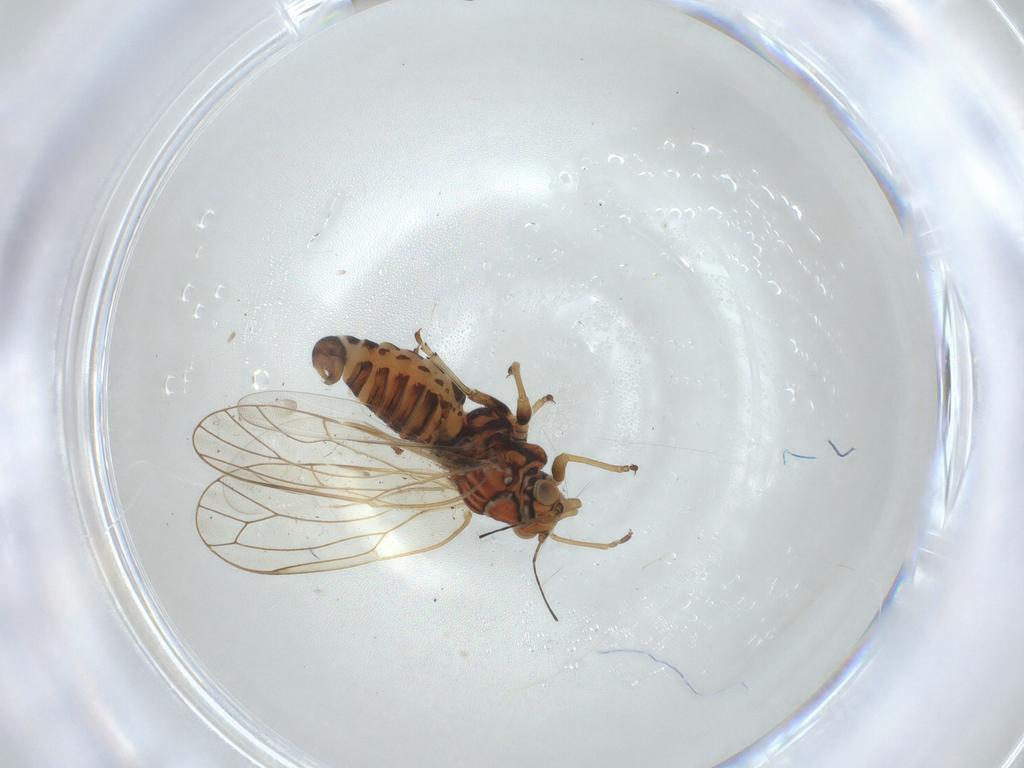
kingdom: Animalia
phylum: Arthropoda
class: Insecta
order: Hemiptera
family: Psyllidae
